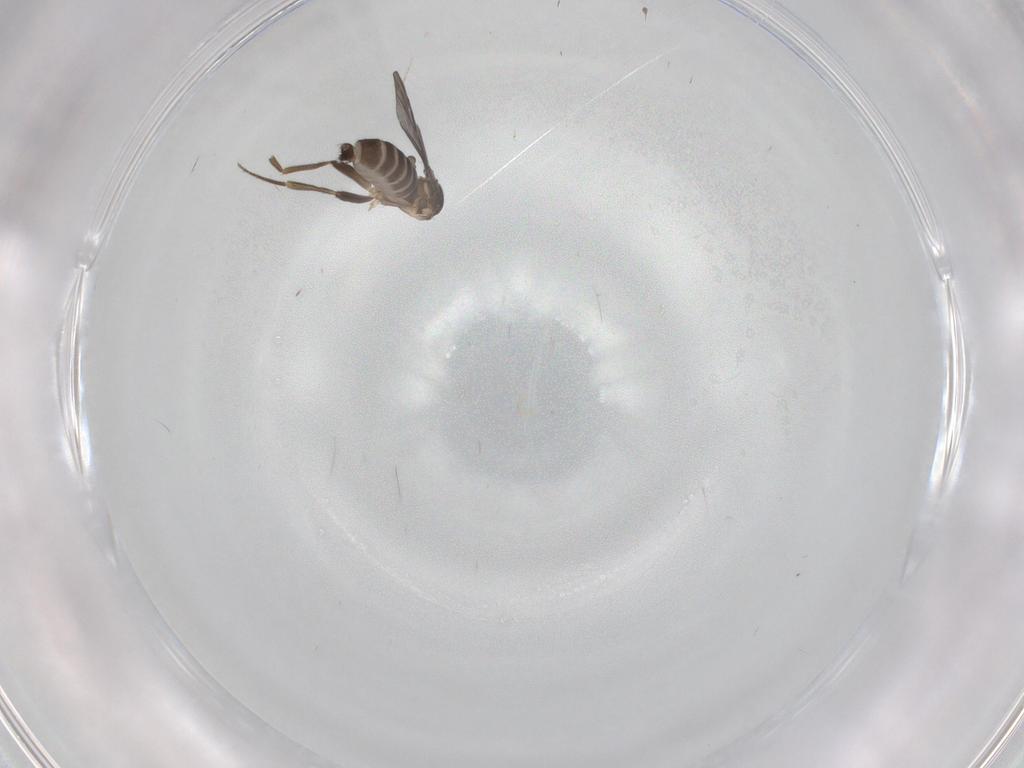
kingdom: Animalia
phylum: Arthropoda
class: Insecta
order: Diptera
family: Phoridae
